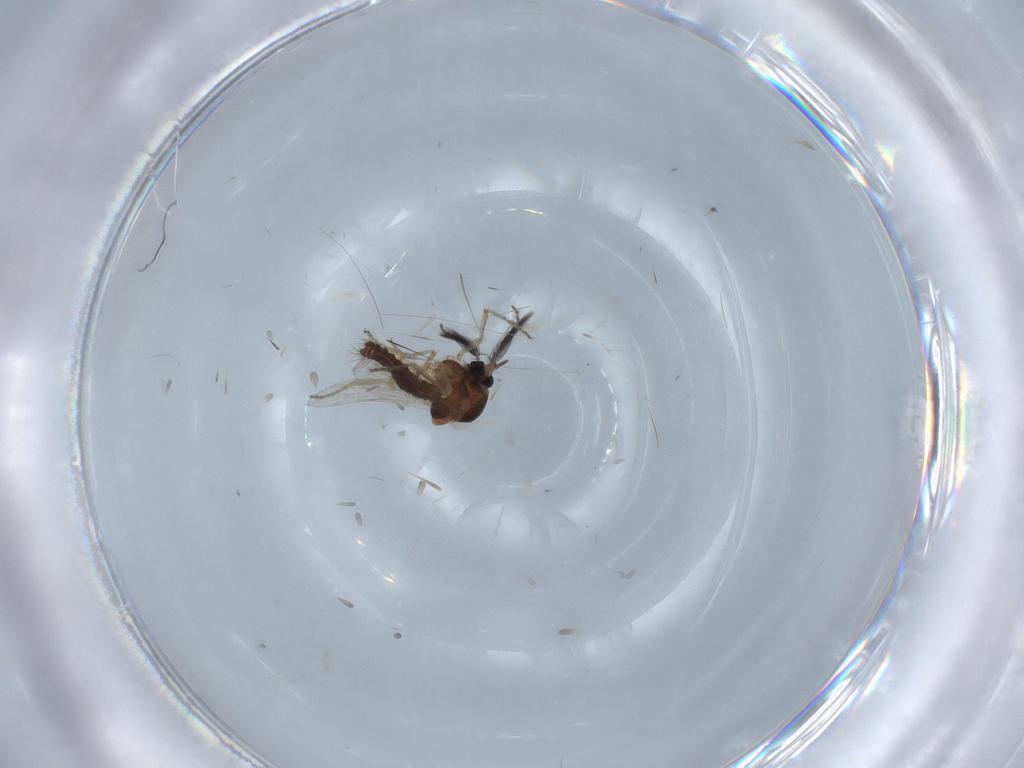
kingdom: Animalia
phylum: Arthropoda
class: Insecta
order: Diptera
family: Ceratopogonidae
